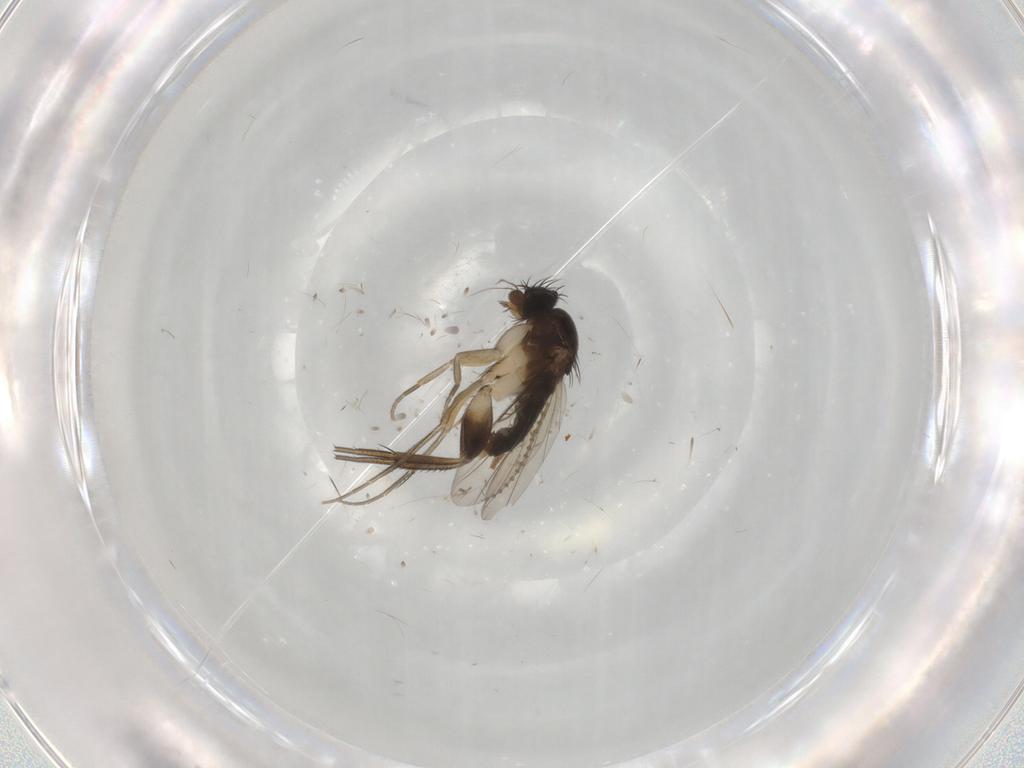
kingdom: Animalia
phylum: Arthropoda
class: Insecta
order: Diptera
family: Phoridae
